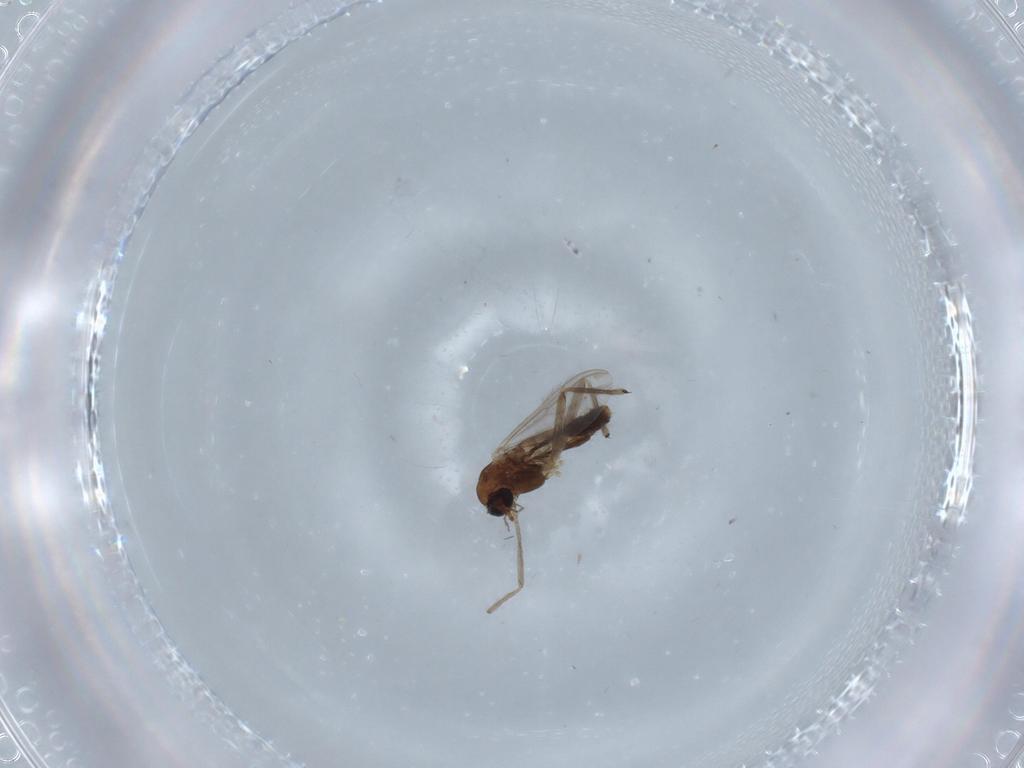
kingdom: Animalia
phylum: Arthropoda
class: Insecta
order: Diptera
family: Chironomidae
